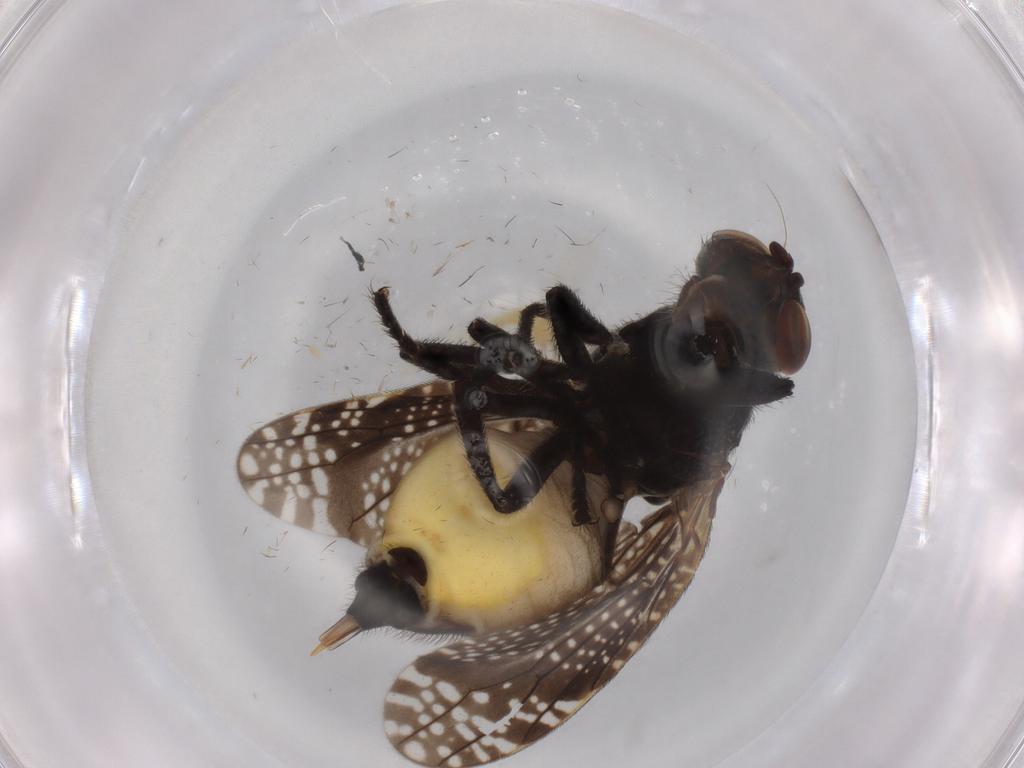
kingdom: Animalia
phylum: Arthropoda
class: Insecta
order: Diptera
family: Chironomidae
